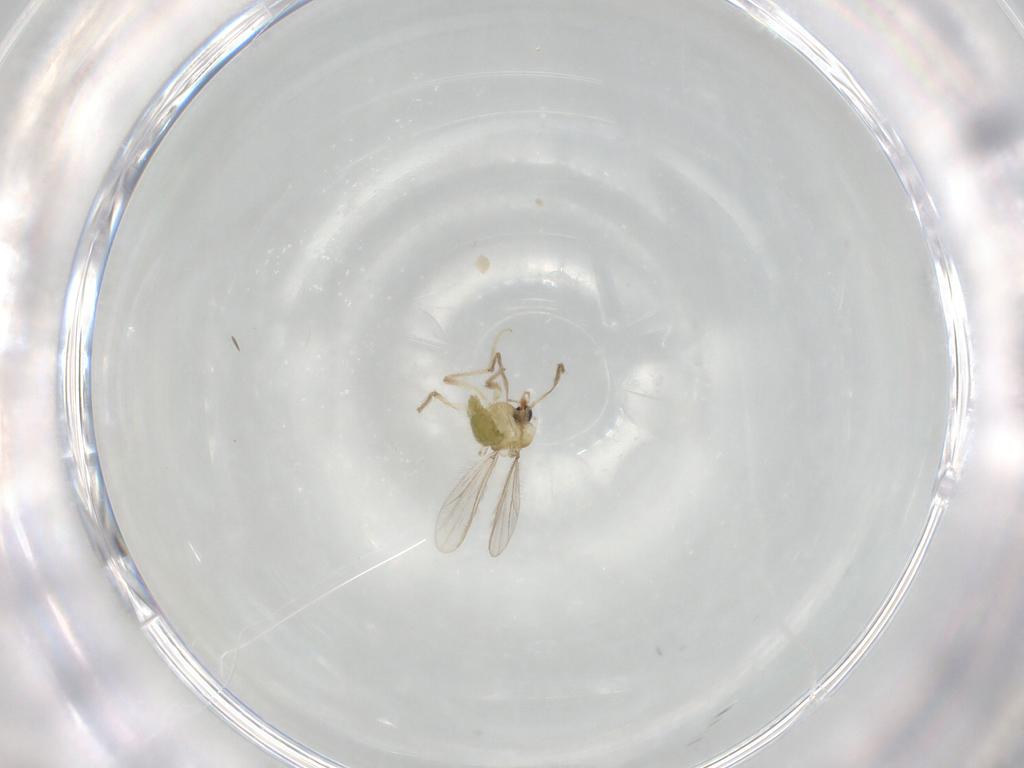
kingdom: Animalia
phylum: Arthropoda
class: Insecta
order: Diptera
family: Chironomidae
